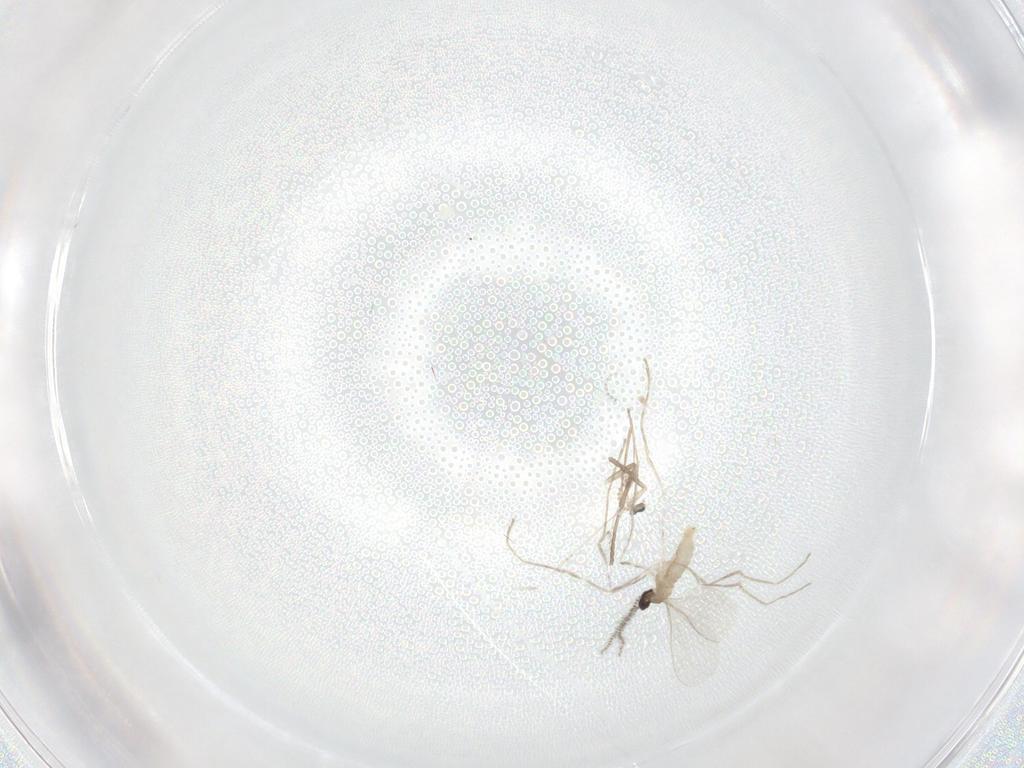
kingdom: Animalia
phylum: Arthropoda
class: Insecta
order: Diptera
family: Psychodidae
